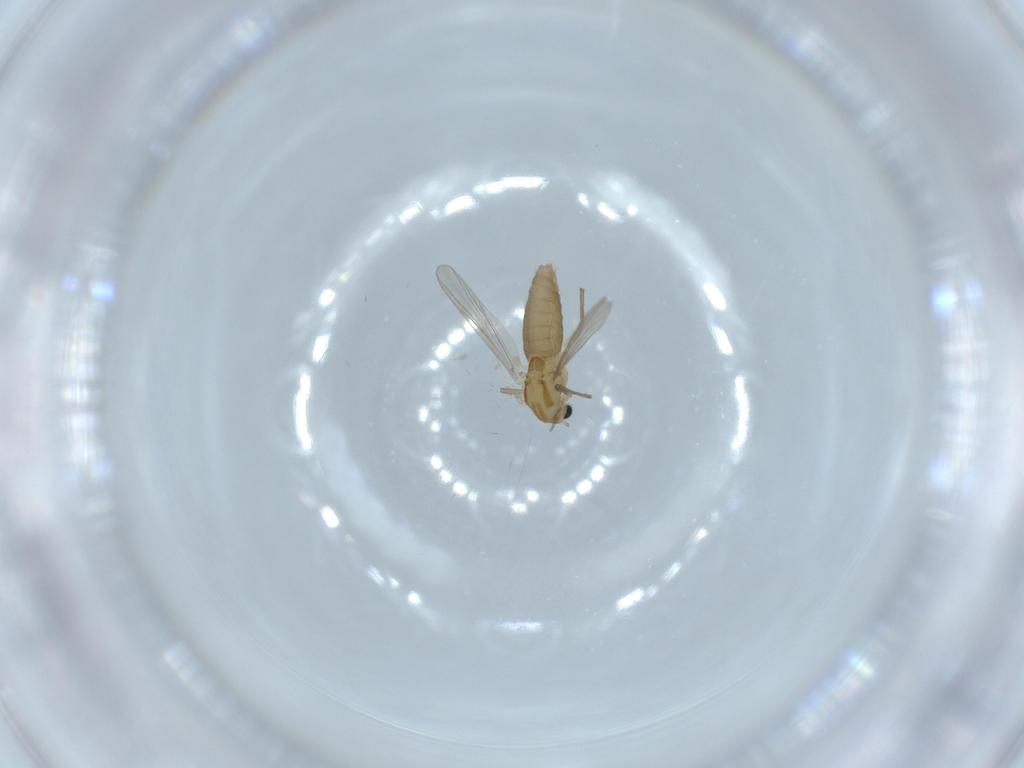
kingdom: Animalia
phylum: Arthropoda
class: Insecta
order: Diptera
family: Chironomidae
